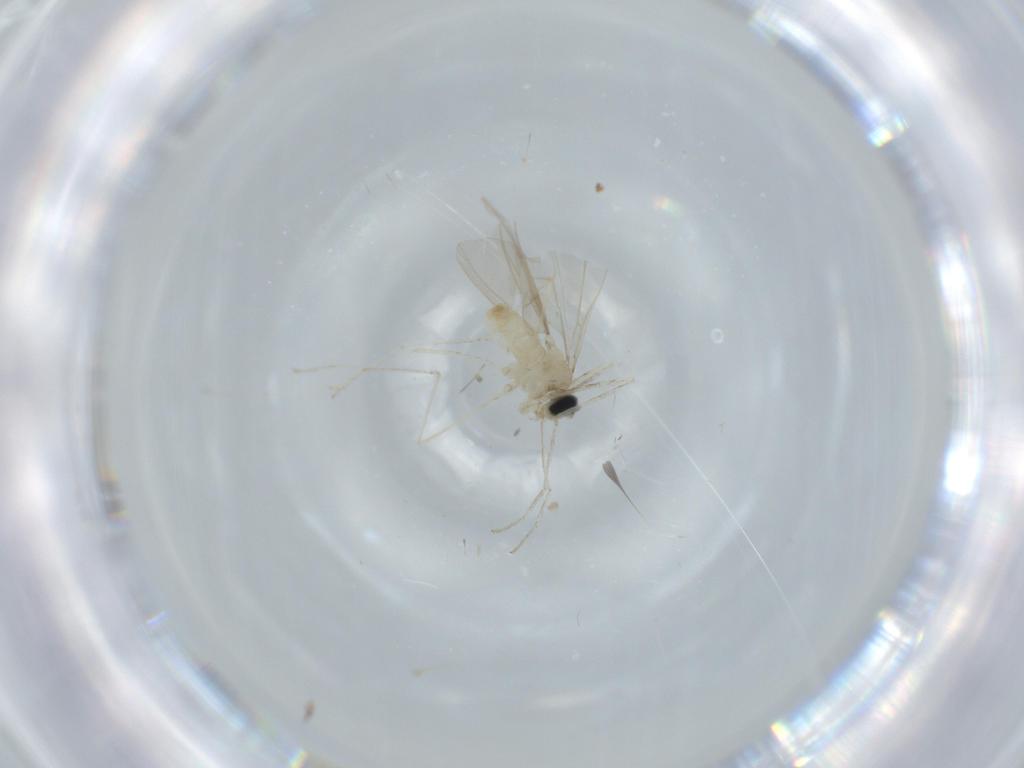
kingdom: Animalia
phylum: Arthropoda
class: Insecta
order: Diptera
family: Cecidomyiidae
